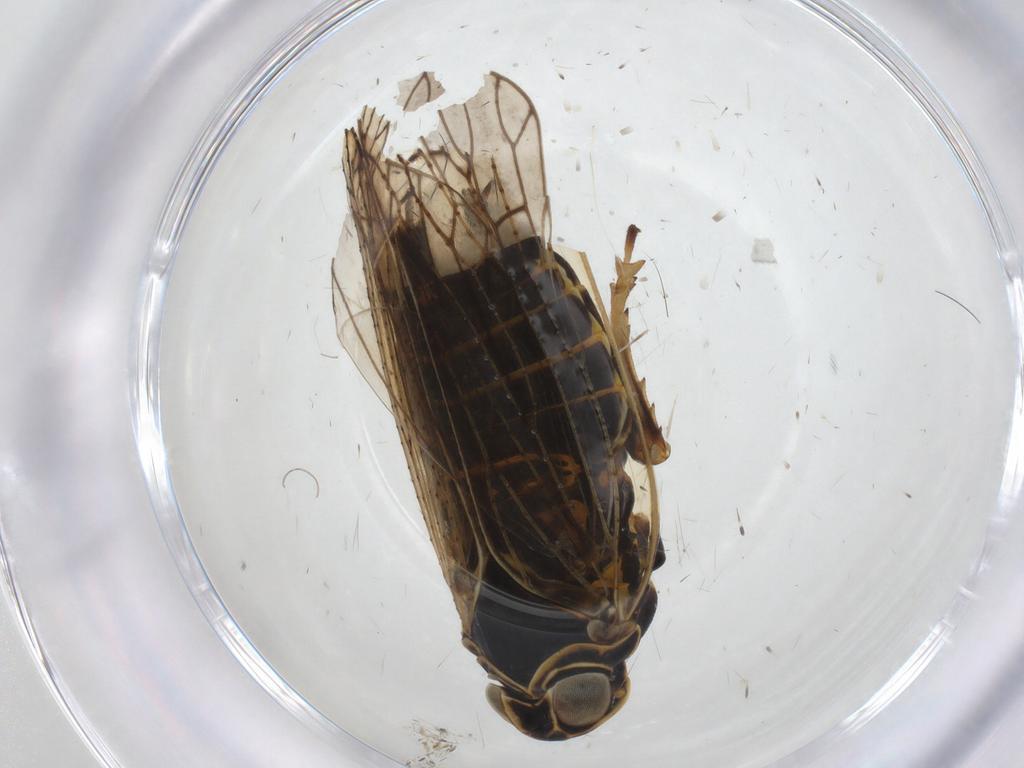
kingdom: Animalia
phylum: Arthropoda
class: Insecta
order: Hemiptera
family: Cixiidae
